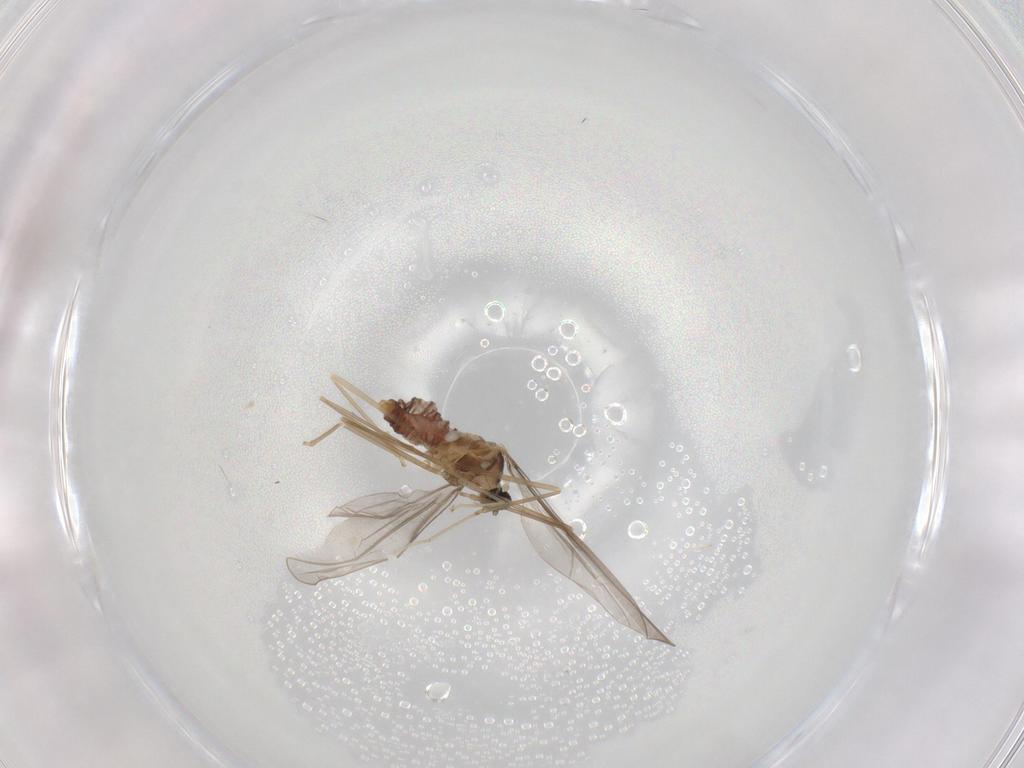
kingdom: Animalia
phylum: Arthropoda
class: Insecta
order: Diptera
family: Cecidomyiidae
